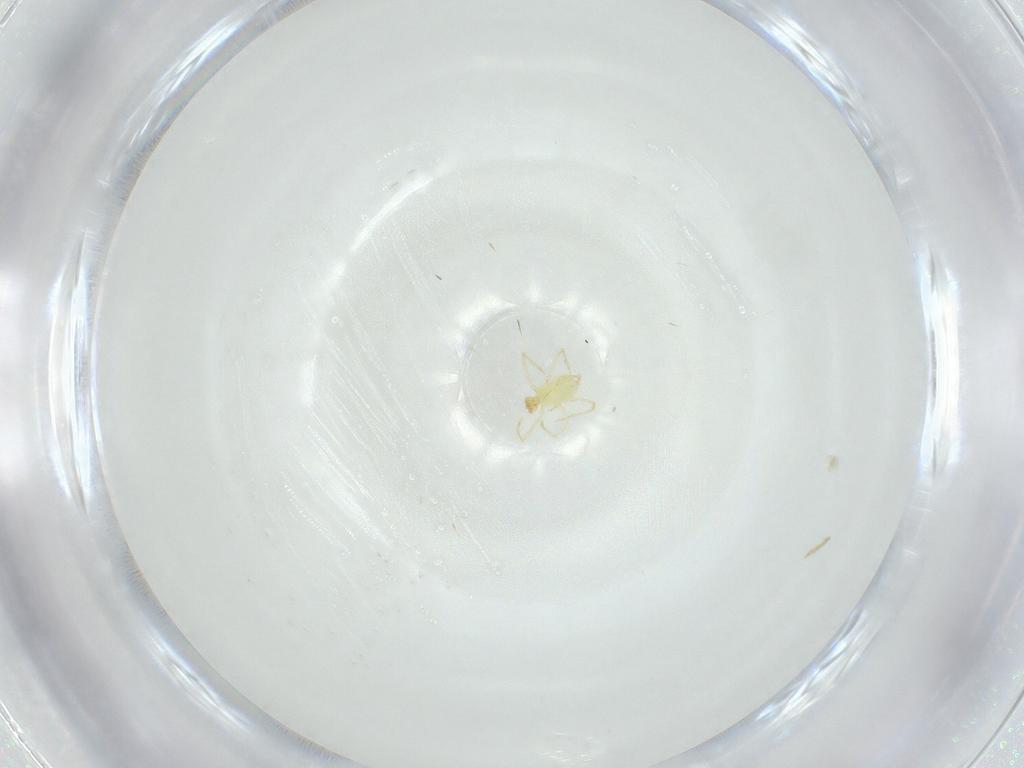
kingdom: Animalia
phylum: Arthropoda
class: Arachnida
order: Trombidiformes
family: Erythraeidae
